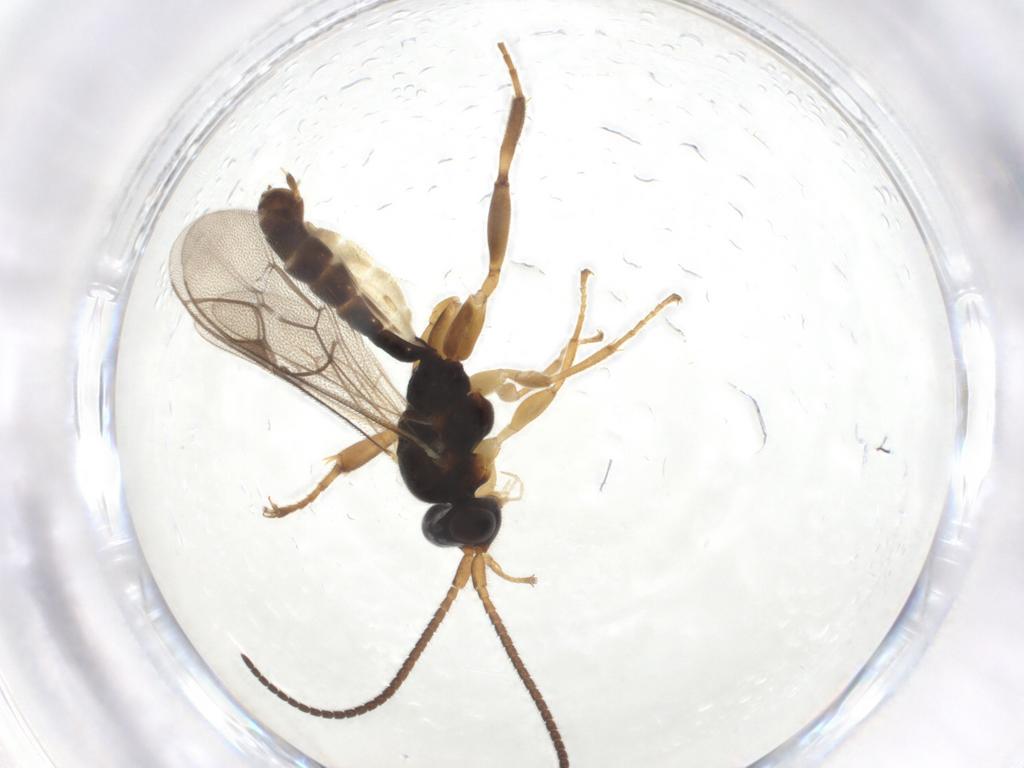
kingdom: Animalia
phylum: Arthropoda
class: Insecta
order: Hymenoptera
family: Ichneumonidae
